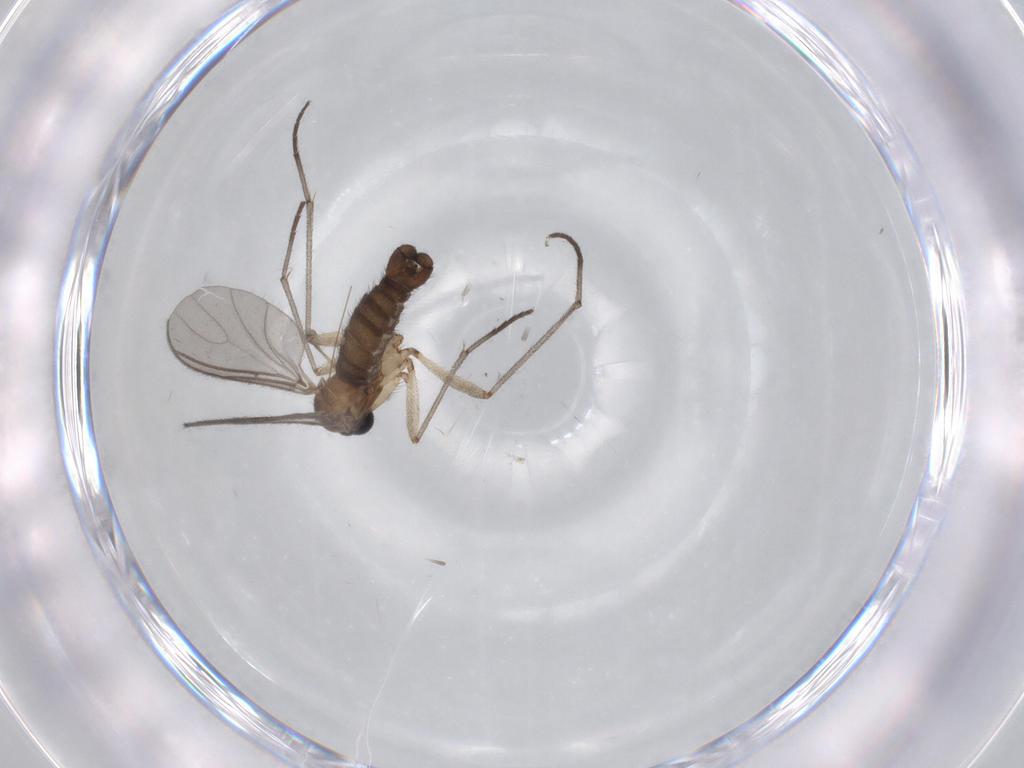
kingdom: Animalia
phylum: Arthropoda
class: Insecta
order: Diptera
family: Sciaridae
